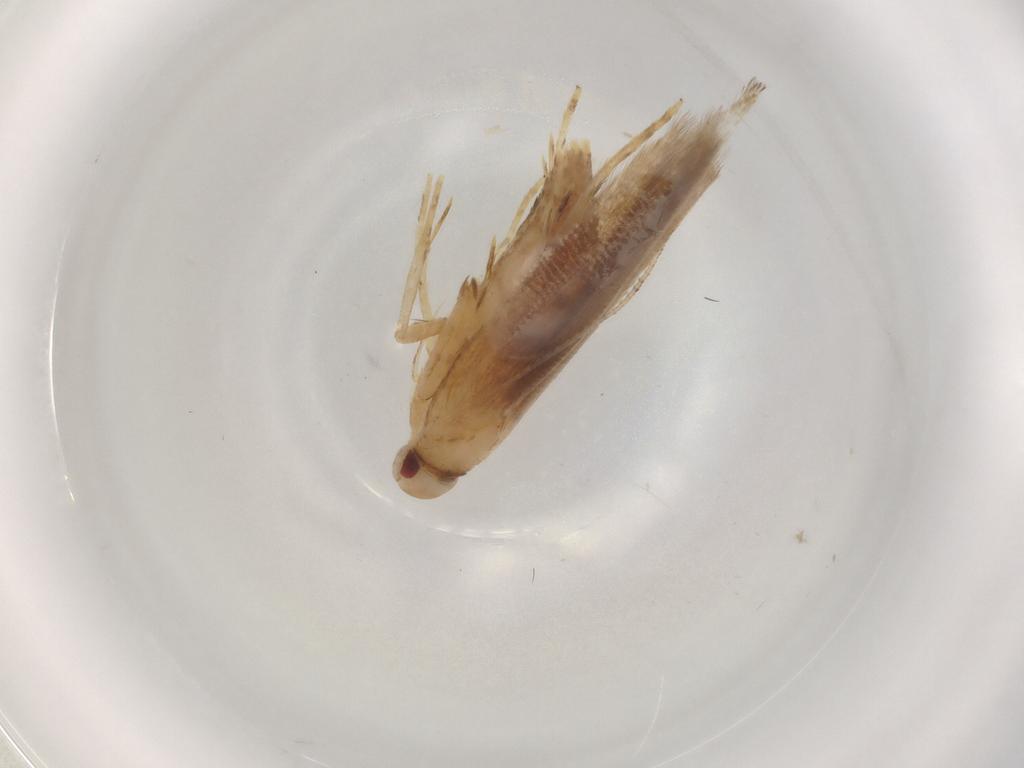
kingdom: Animalia
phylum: Arthropoda
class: Insecta
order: Lepidoptera
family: Cosmopterigidae
